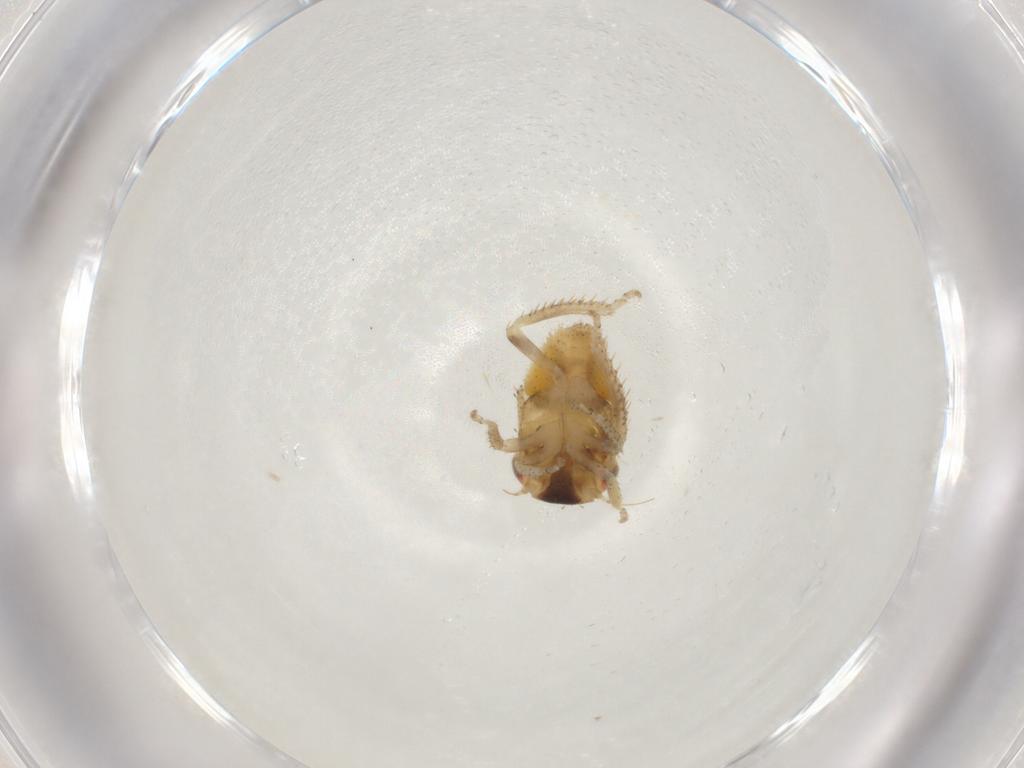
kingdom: Animalia
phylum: Arthropoda
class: Insecta
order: Hemiptera
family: Cicadellidae
